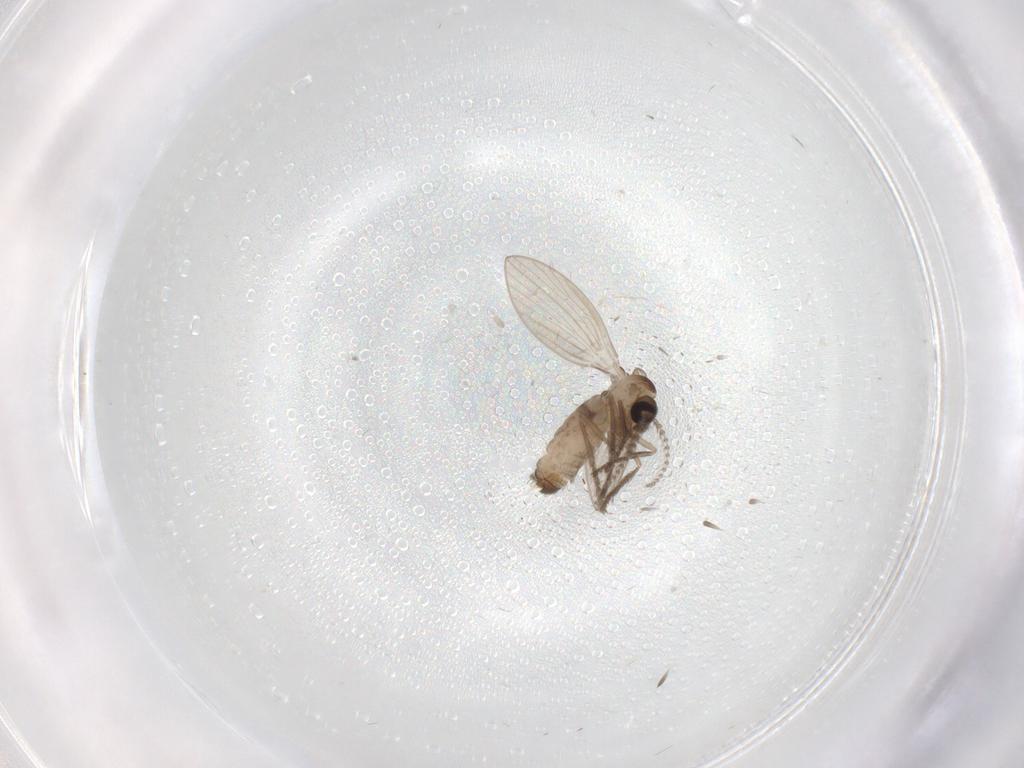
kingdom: Animalia
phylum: Arthropoda
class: Insecta
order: Diptera
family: Psychodidae
